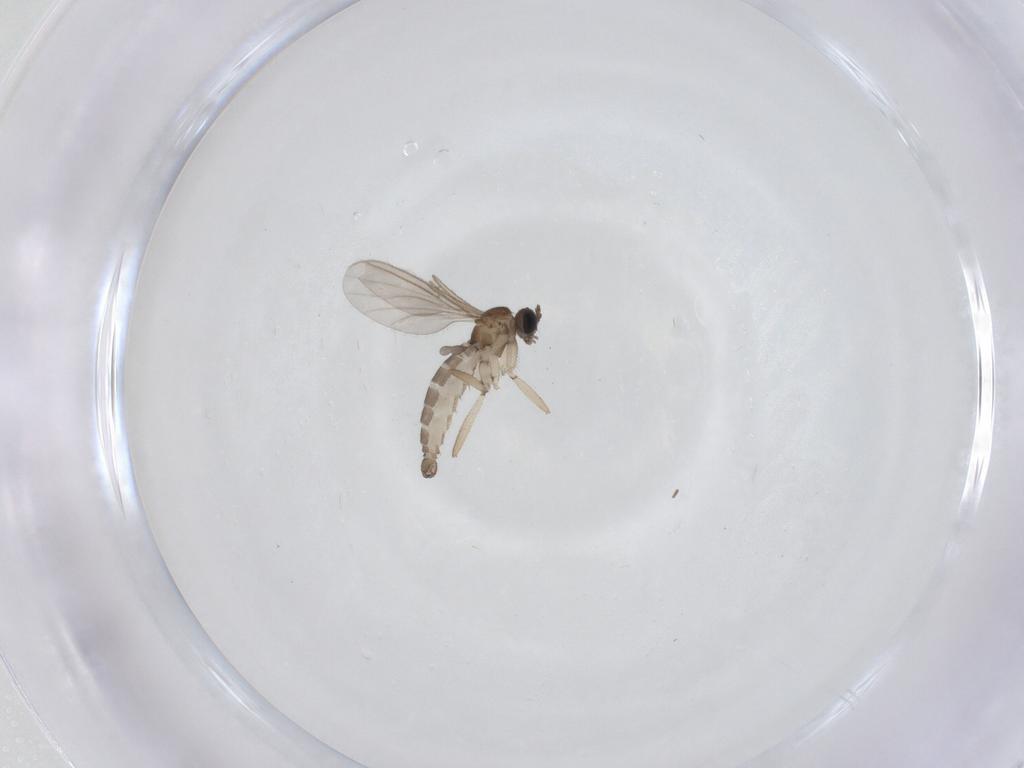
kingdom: Animalia
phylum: Arthropoda
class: Insecta
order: Diptera
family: Sciaridae
